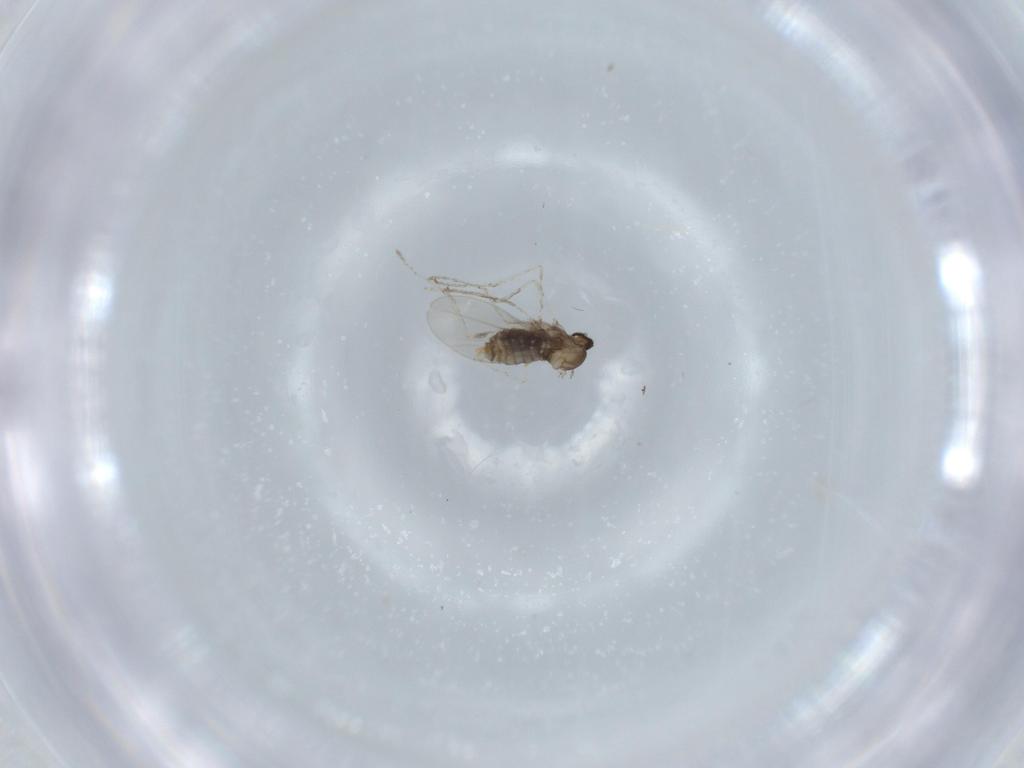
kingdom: Animalia
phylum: Arthropoda
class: Insecta
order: Diptera
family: Cecidomyiidae
